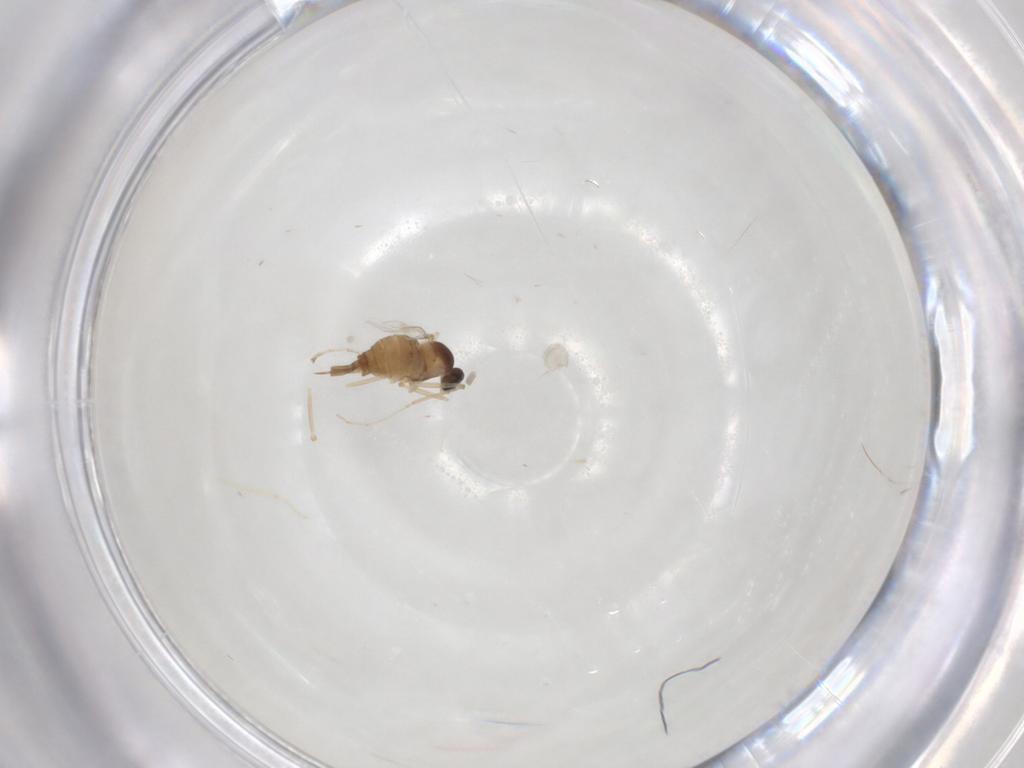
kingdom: Animalia
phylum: Arthropoda
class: Insecta
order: Diptera
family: Cecidomyiidae
